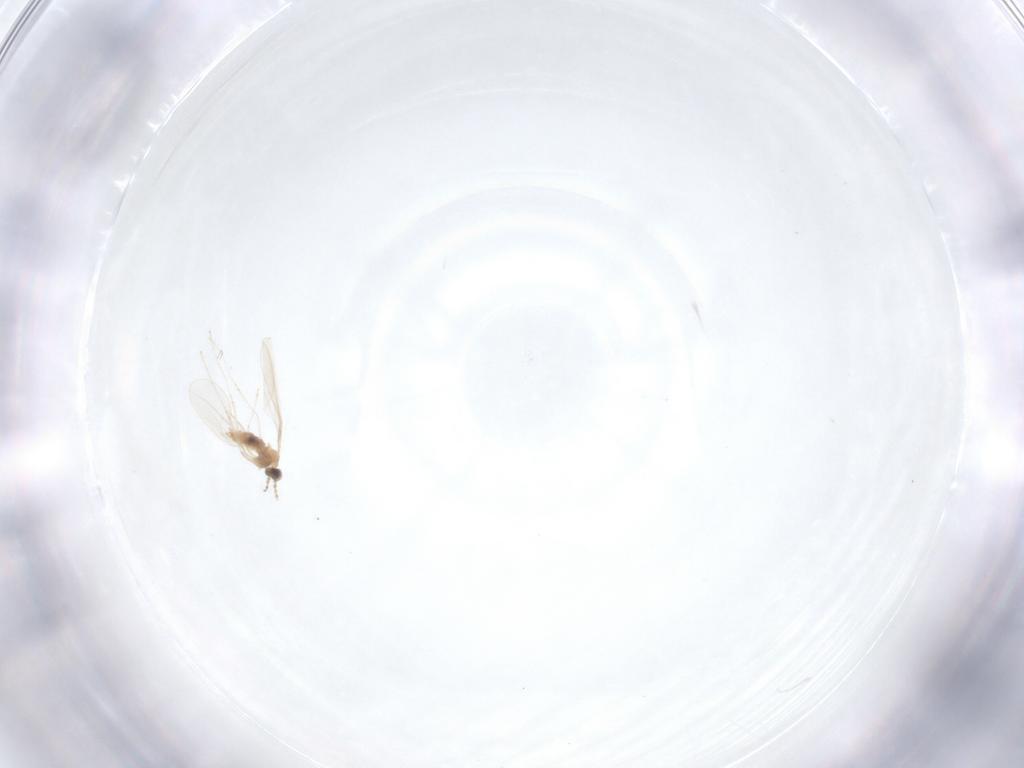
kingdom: Animalia
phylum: Arthropoda
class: Insecta
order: Diptera
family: Cecidomyiidae
